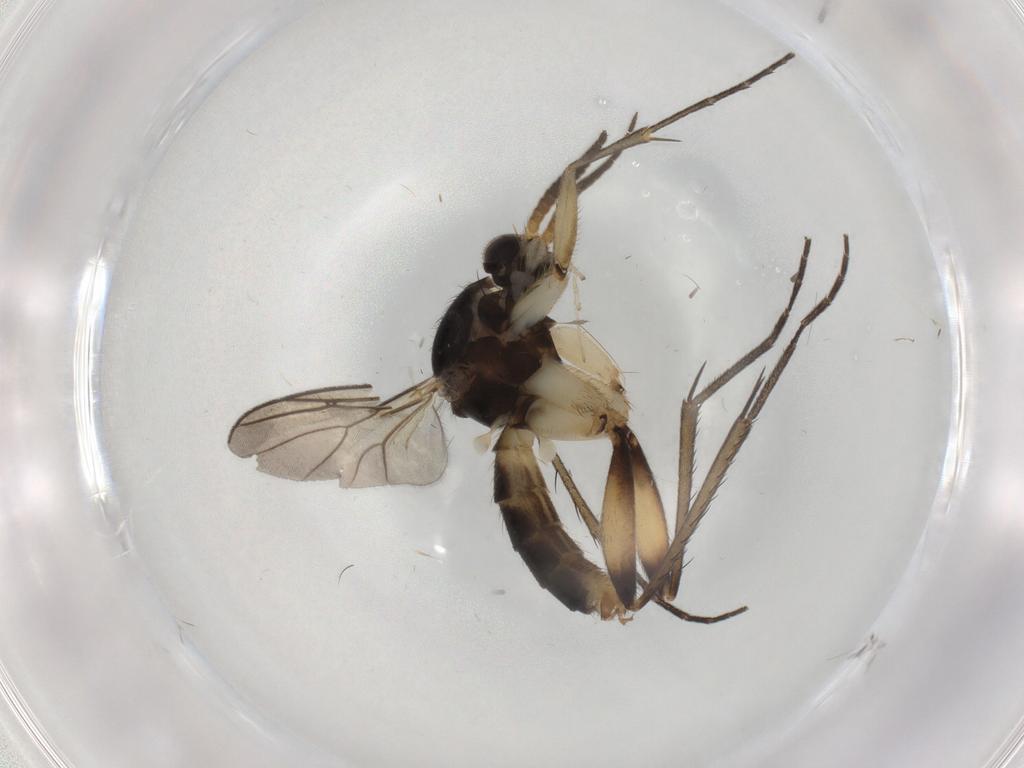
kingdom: Animalia
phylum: Arthropoda
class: Insecta
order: Diptera
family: Mycetophilidae
